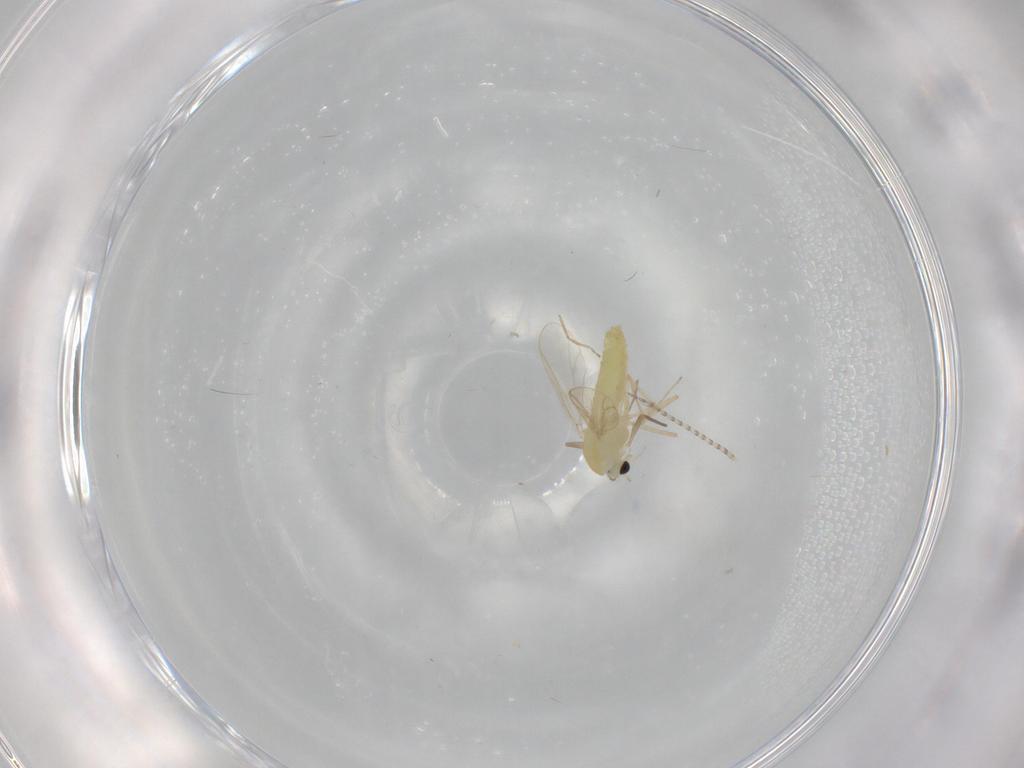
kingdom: Animalia
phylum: Arthropoda
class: Insecta
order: Diptera
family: Chironomidae
